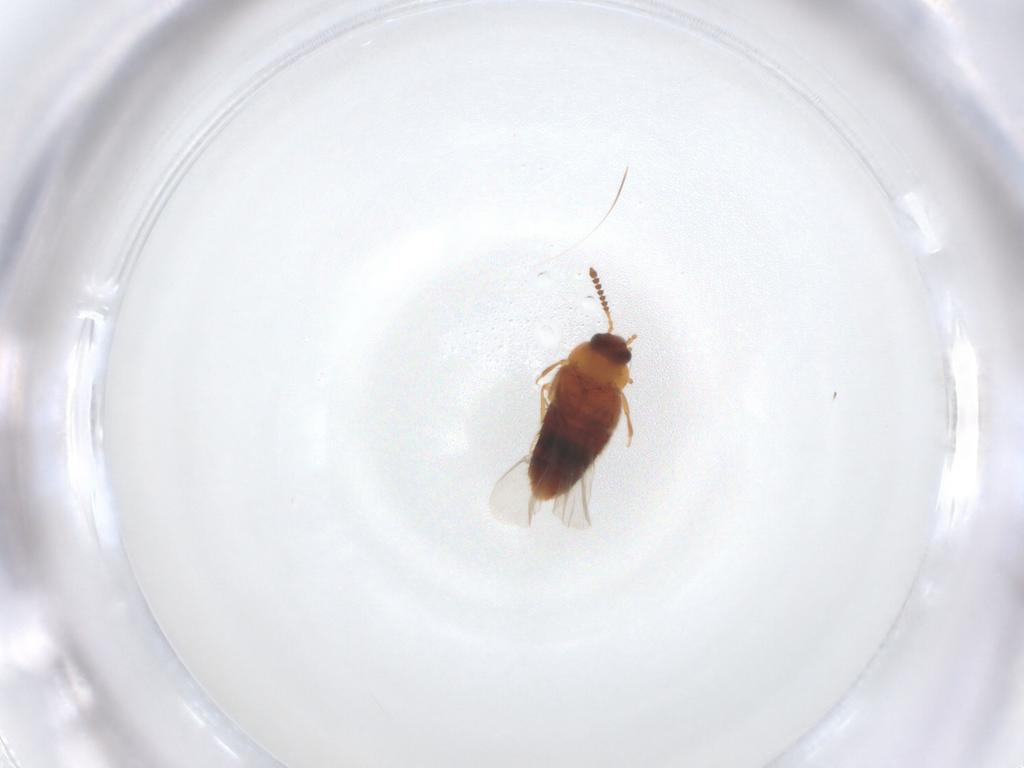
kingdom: Animalia
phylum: Arthropoda
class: Insecta
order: Coleoptera
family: Staphylinidae
